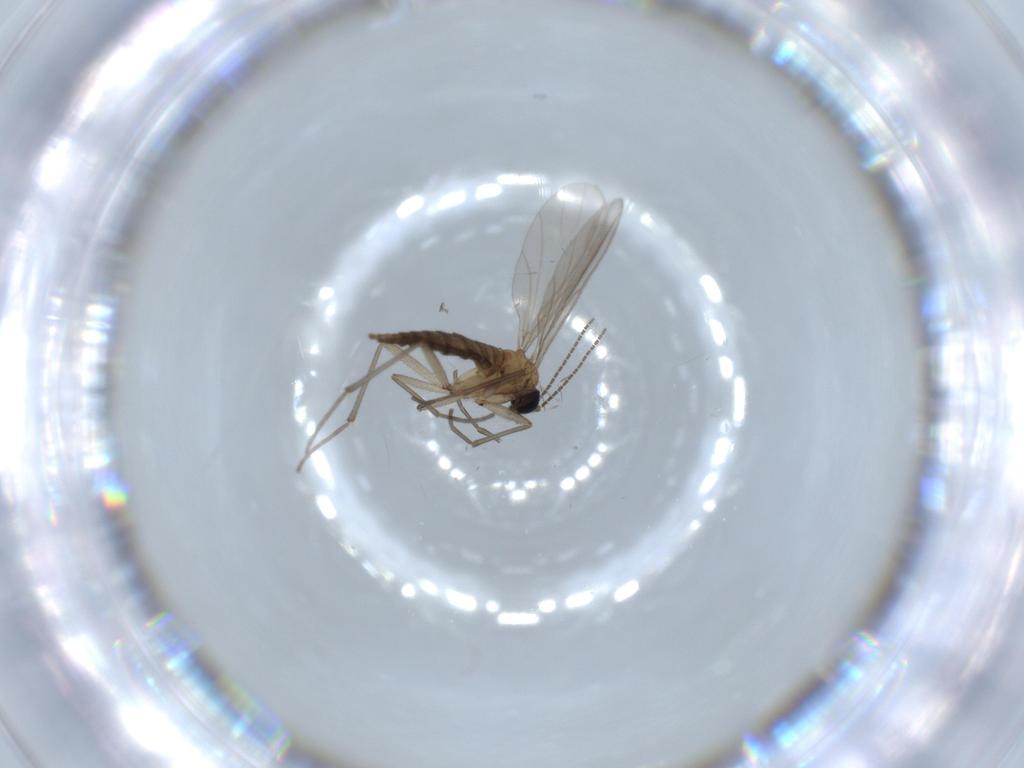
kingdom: Animalia
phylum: Arthropoda
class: Insecta
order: Diptera
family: Sciaridae
